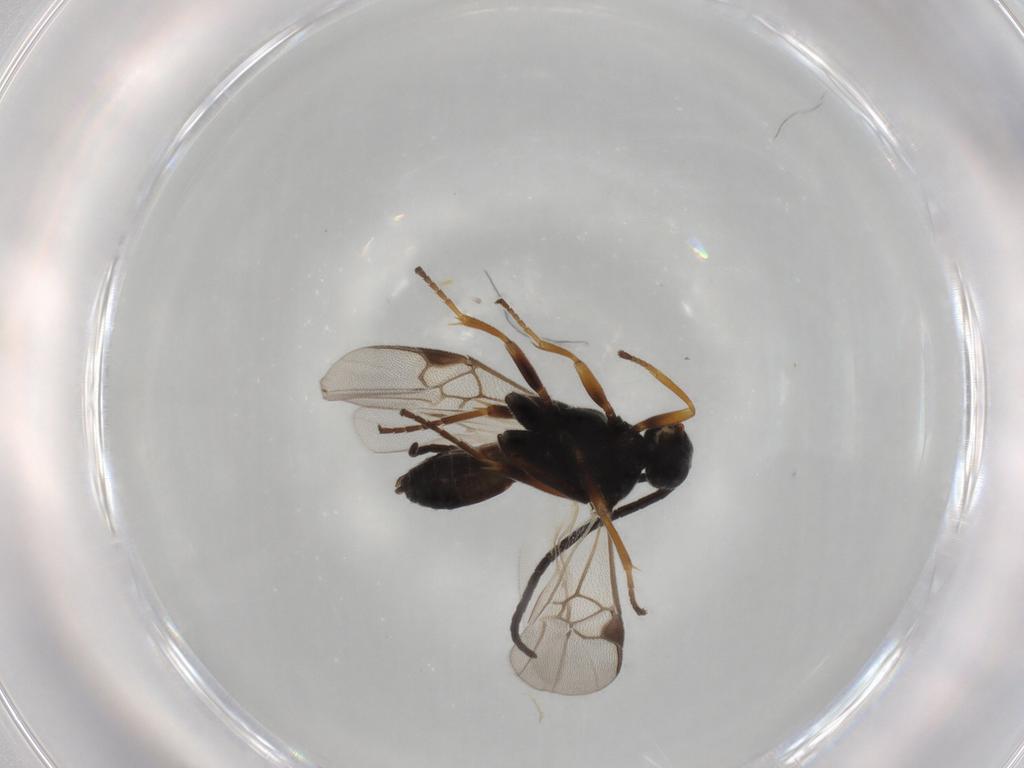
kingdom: Animalia
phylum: Arthropoda
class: Insecta
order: Hymenoptera
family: Braconidae
